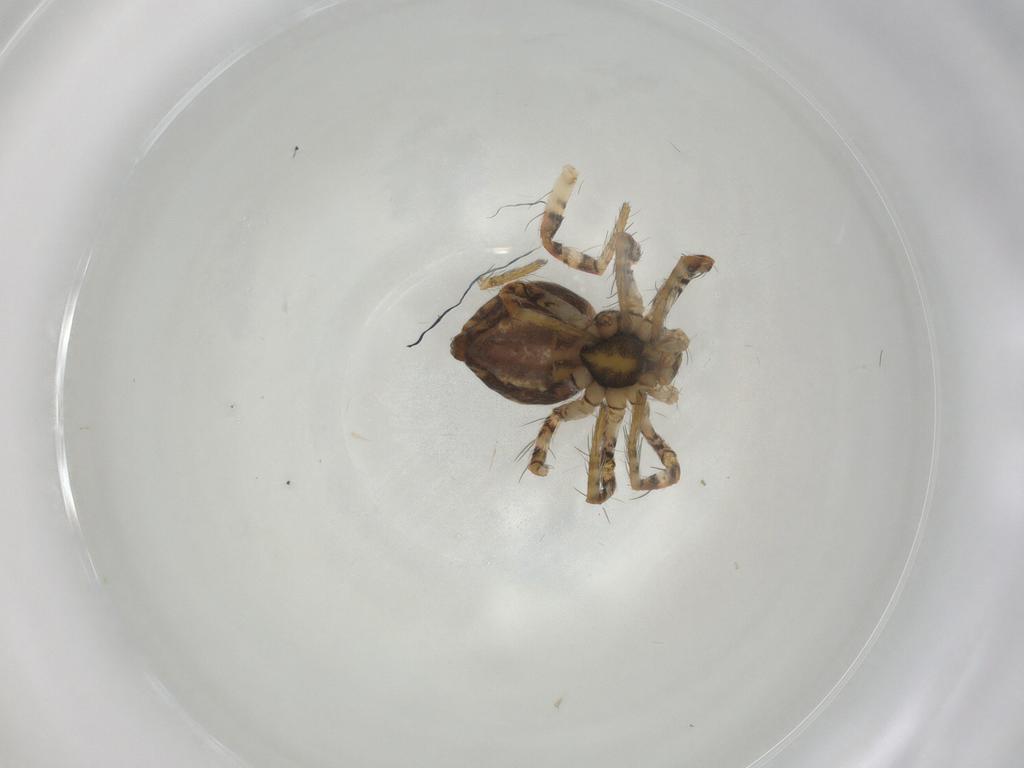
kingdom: Animalia
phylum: Arthropoda
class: Arachnida
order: Araneae
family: Pisauridae
